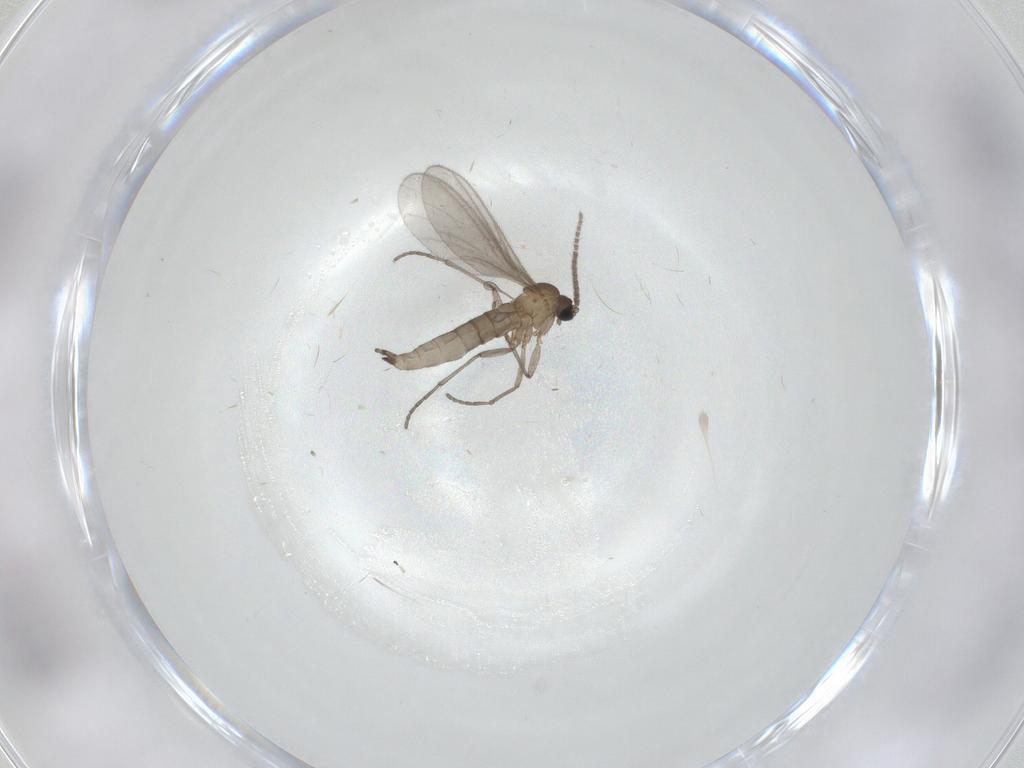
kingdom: Animalia
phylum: Arthropoda
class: Insecta
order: Diptera
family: Sciaridae
